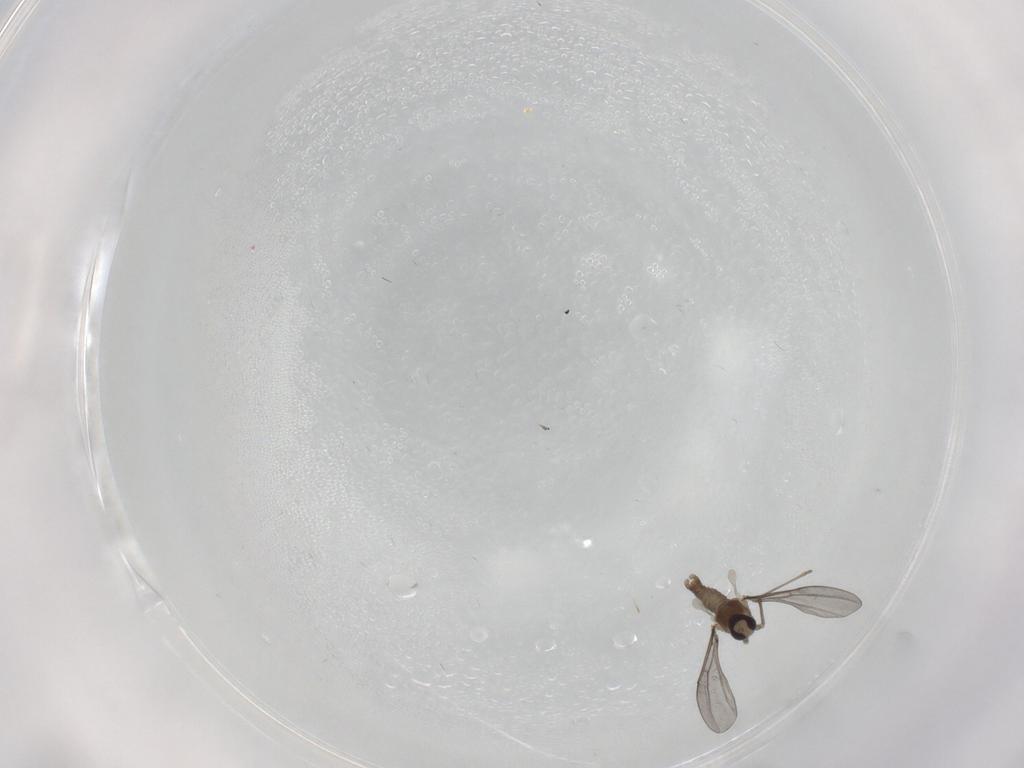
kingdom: Animalia
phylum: Arthropoda
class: Insecta
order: Diptera
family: Cecidomyiidae
